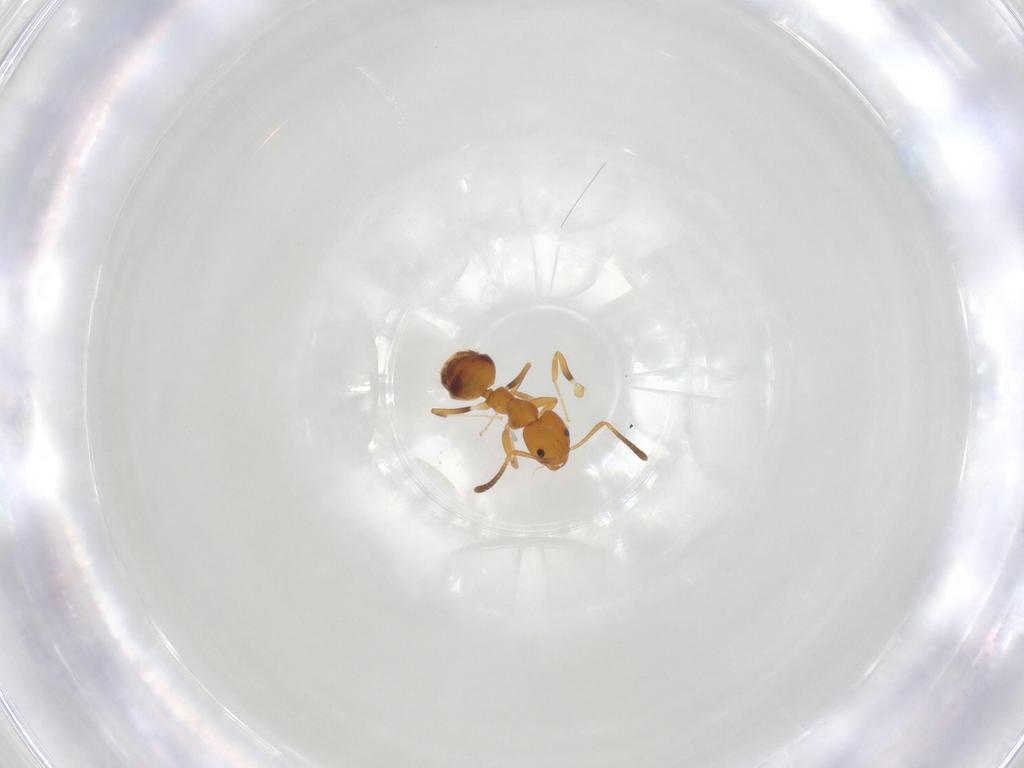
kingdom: Animalia
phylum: Arthropoda
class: Insecta
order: Hymenoptera
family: Formicidae
